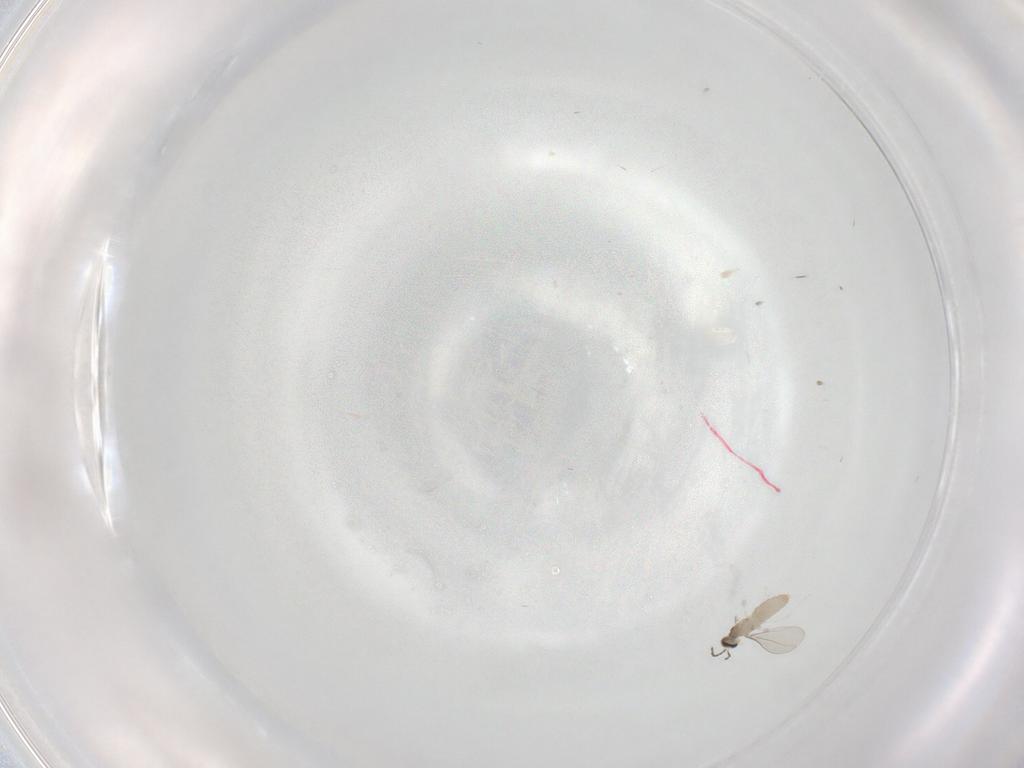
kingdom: Animalia
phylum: Arthropoda
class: Insecta
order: Diptera
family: Cecidomyiidae
